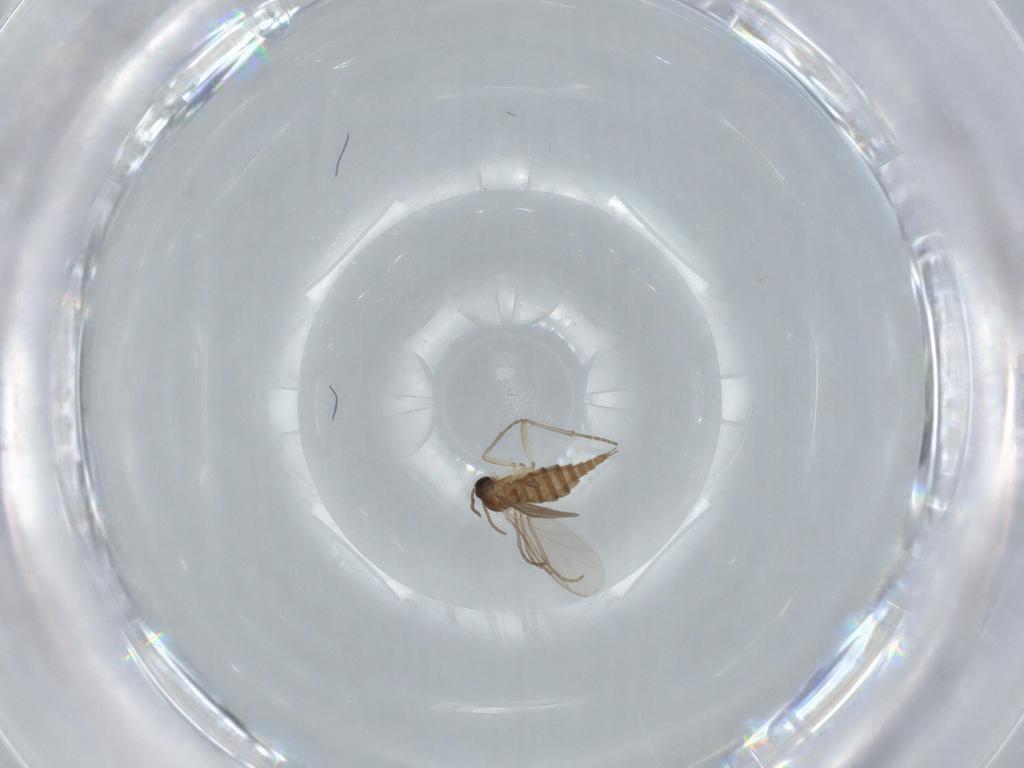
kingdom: Animalia
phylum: Arthropoda
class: Insecta
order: Diptera
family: Sciaridae
